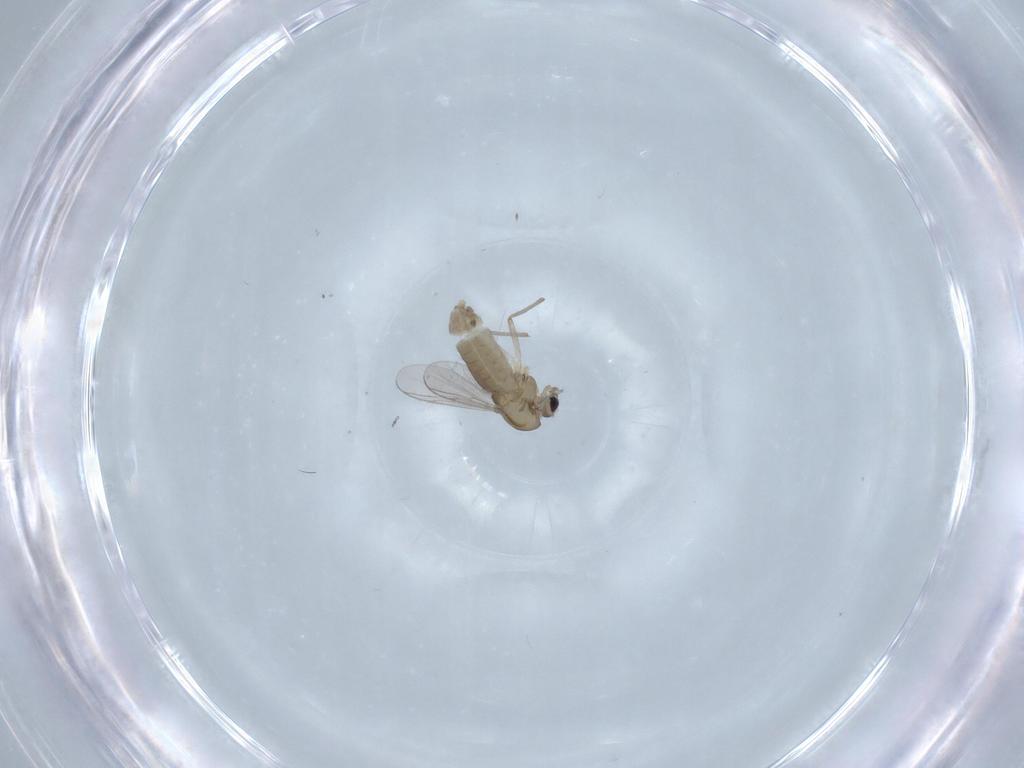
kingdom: Animalia
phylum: Arthropoda
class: Insecta
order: Diptera
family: Chironomidae
